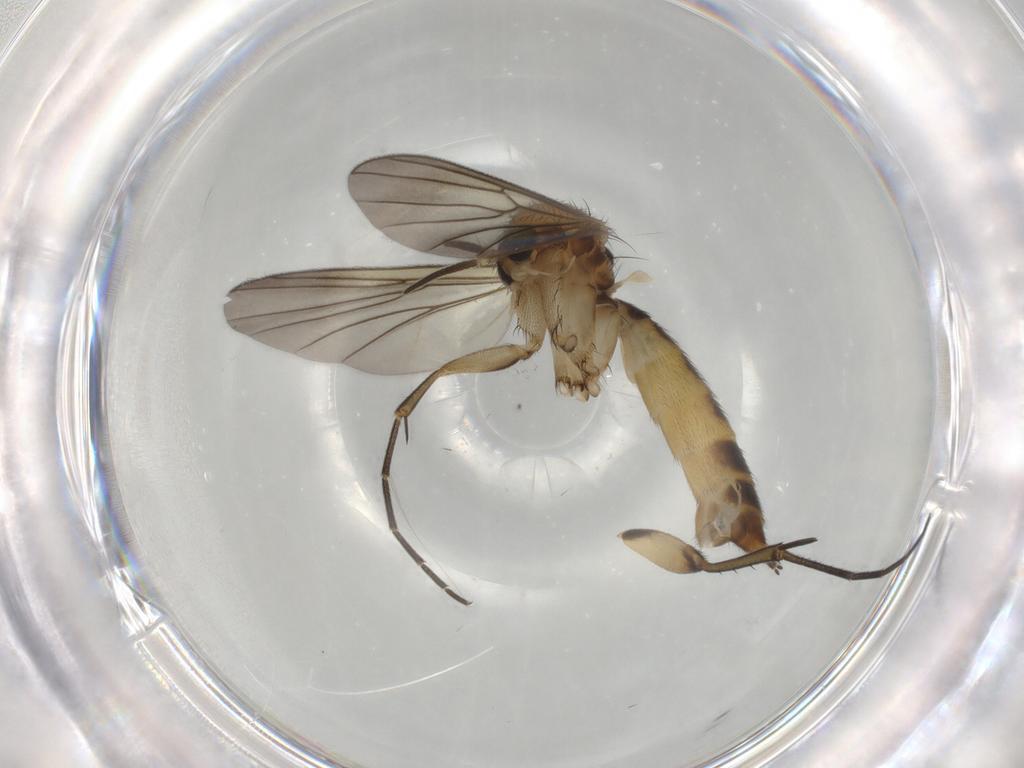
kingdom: Animalia
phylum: Arthropoda
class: Insecta
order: Diptera
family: Mycetophilidae
